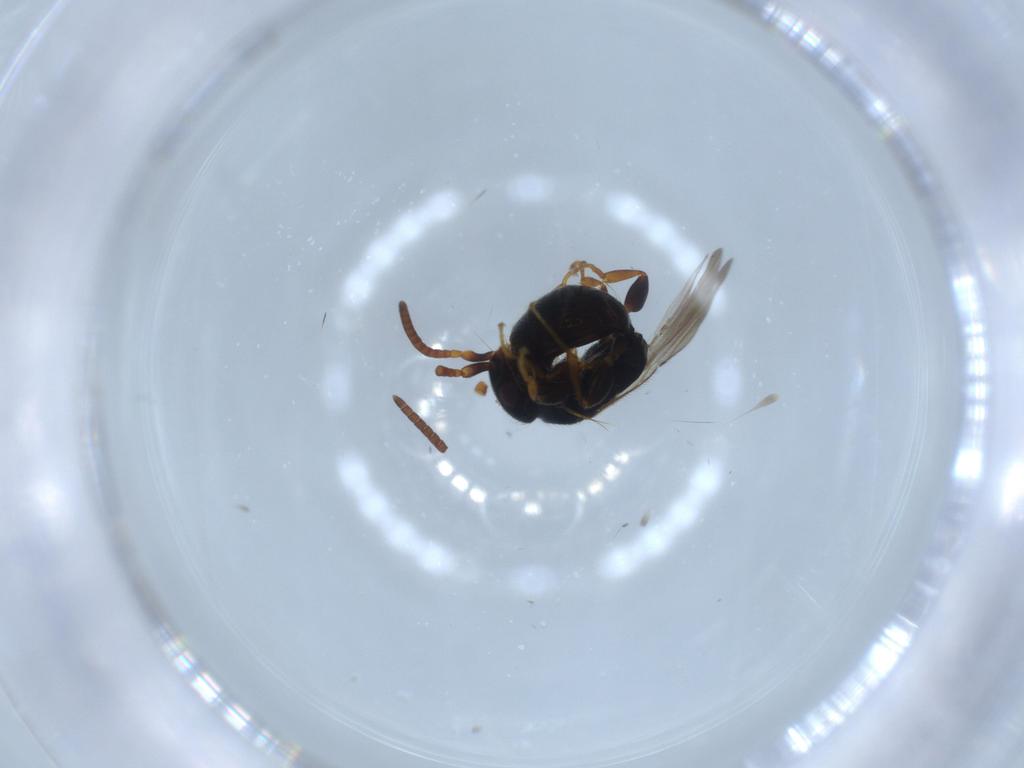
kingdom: Animalia
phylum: Arthropoda
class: Insecta
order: Hymenoptera
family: Bethylidae
